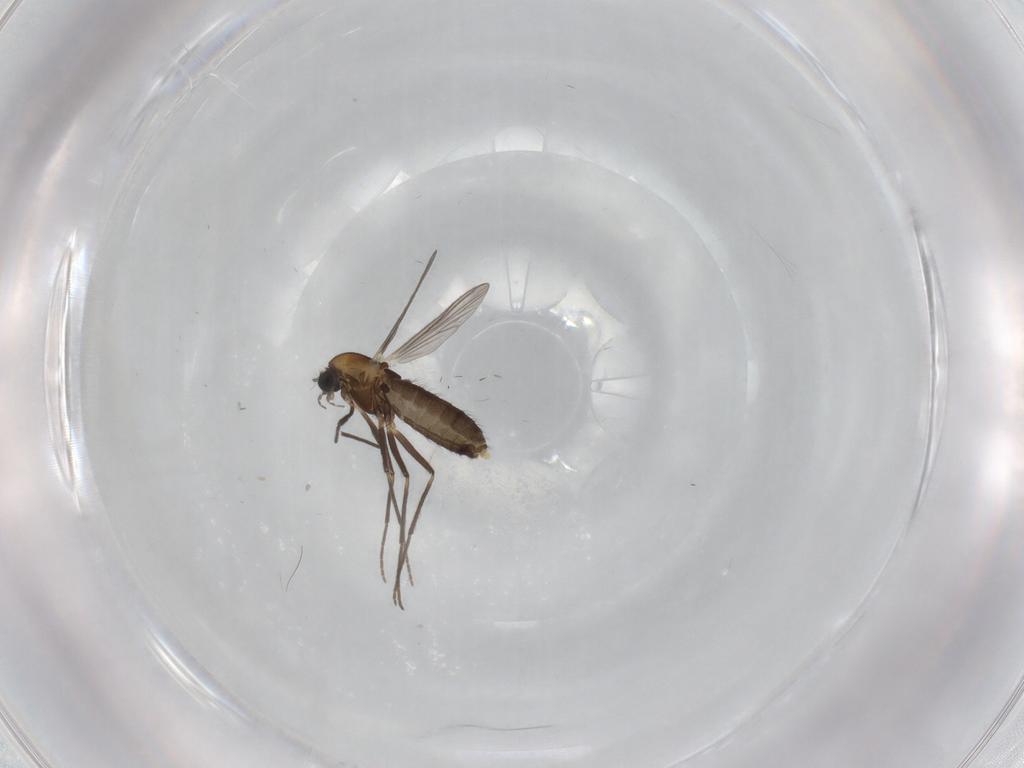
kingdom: Animalia
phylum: Arthropoda
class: Insecta
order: Diptera
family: Chironomidae
